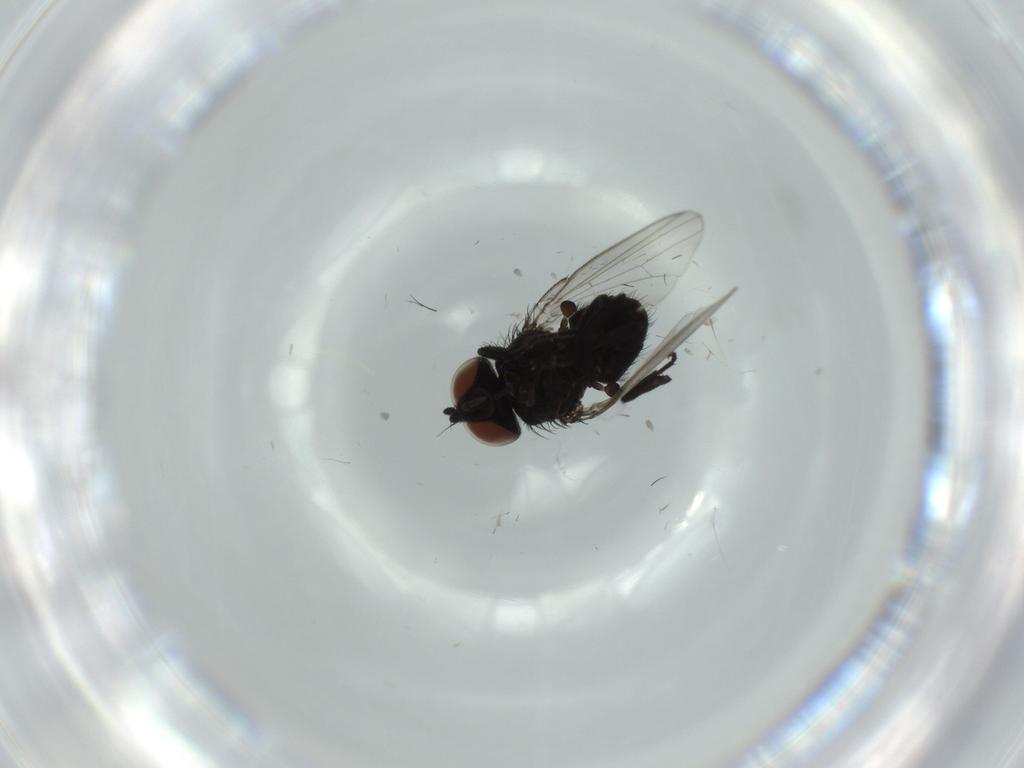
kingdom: Animalia
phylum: Arthropoda
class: Insecta
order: Diptera
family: Milichiidae
